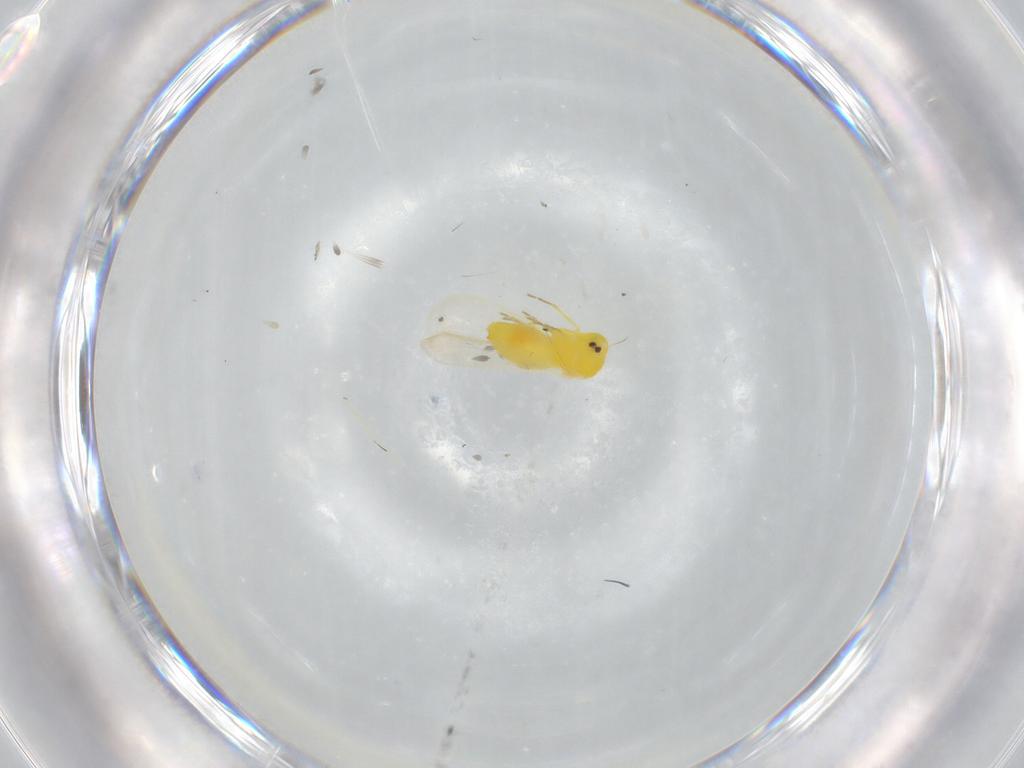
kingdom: Animalia
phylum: Arthropoda
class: Insecta
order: Hemiptera
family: Aleyrodidae
